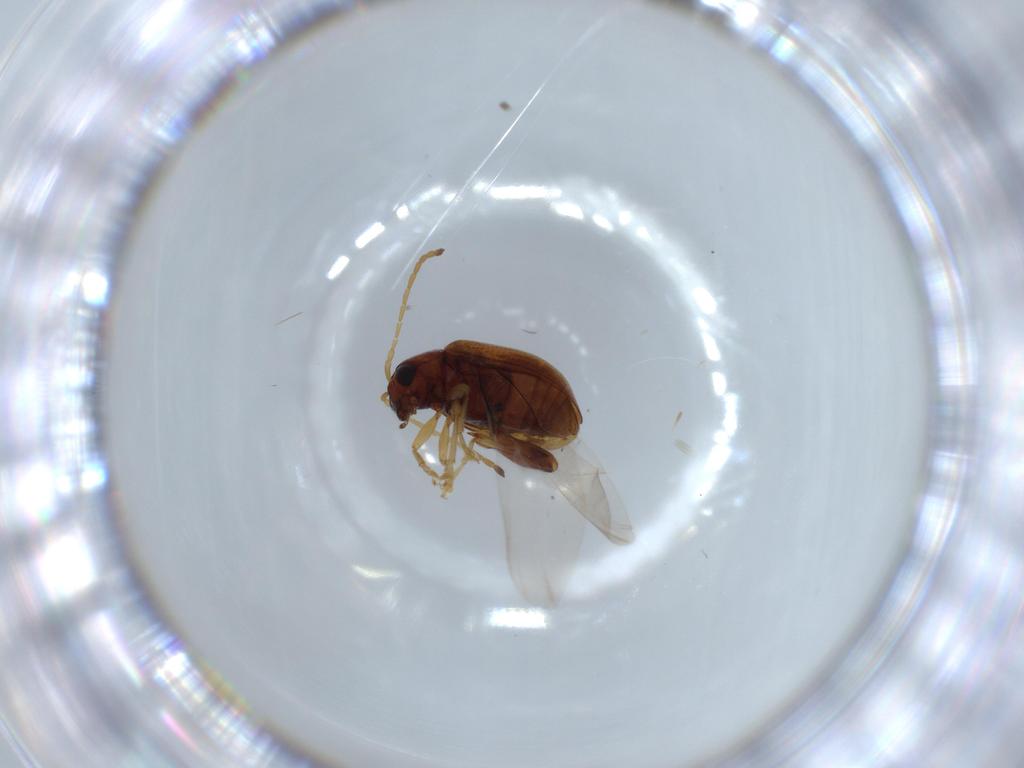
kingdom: Animalia
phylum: Arthropoda
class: Insecta
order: Coleoptera
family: Chrysomelidae
